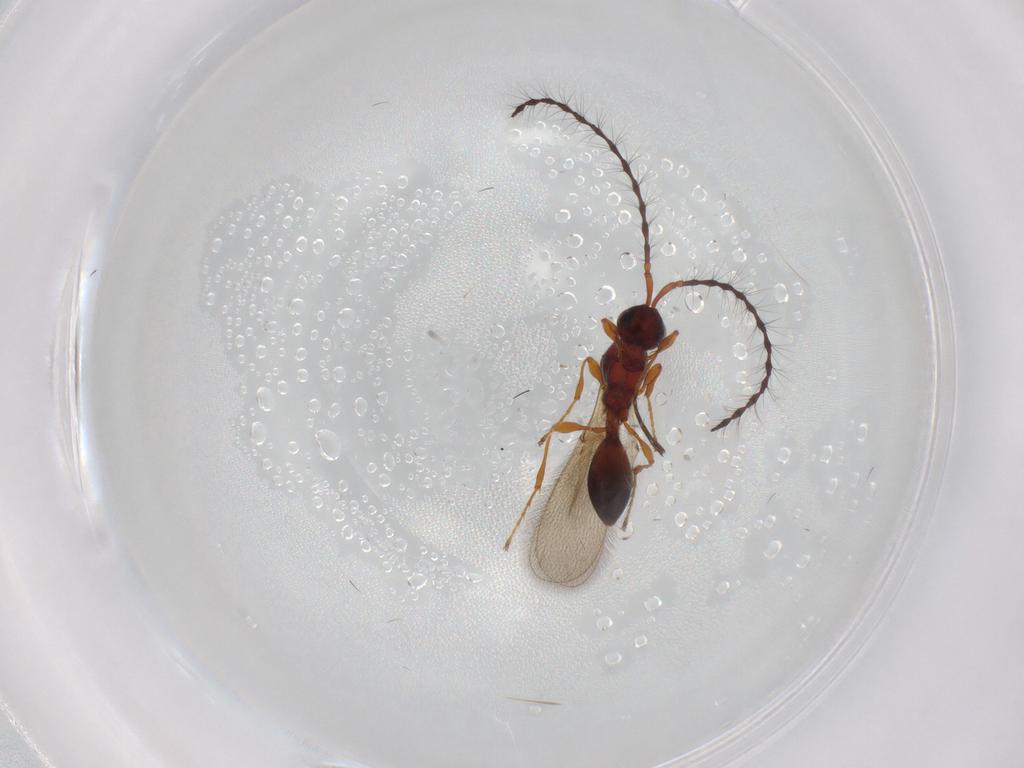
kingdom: Animalia
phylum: Arthropoda
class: Insecta
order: Hymenoptera
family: Diapriidae
